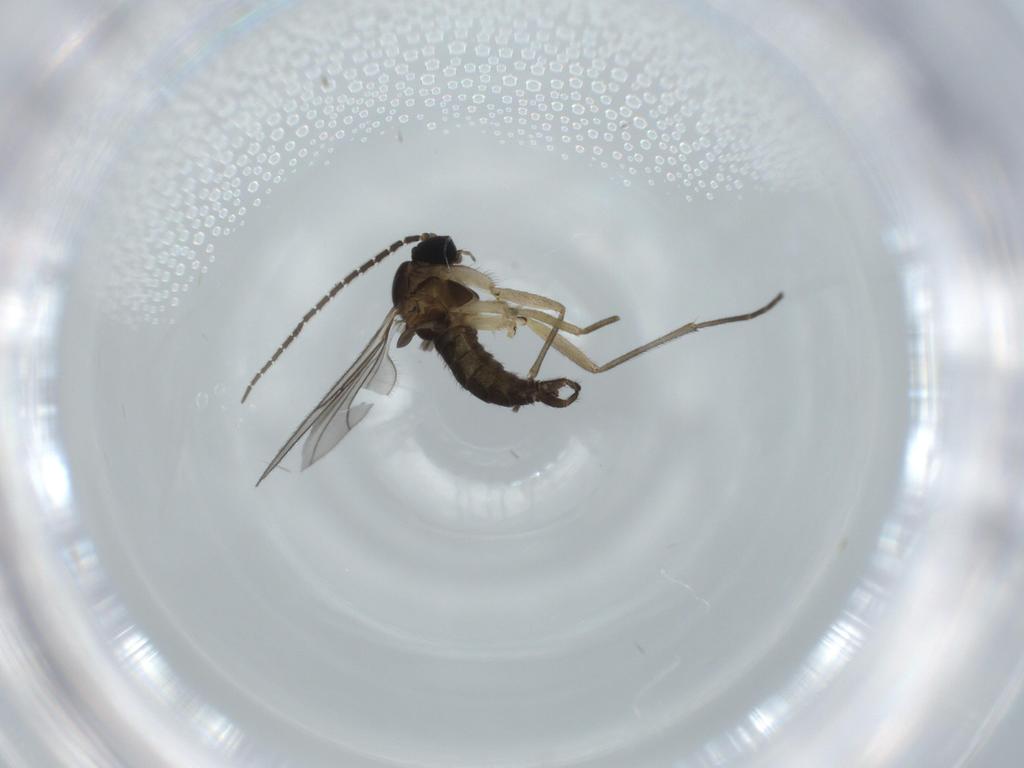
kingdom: Animalia
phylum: Arthropoda
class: Insecta
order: Diptera
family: Sciaridae
